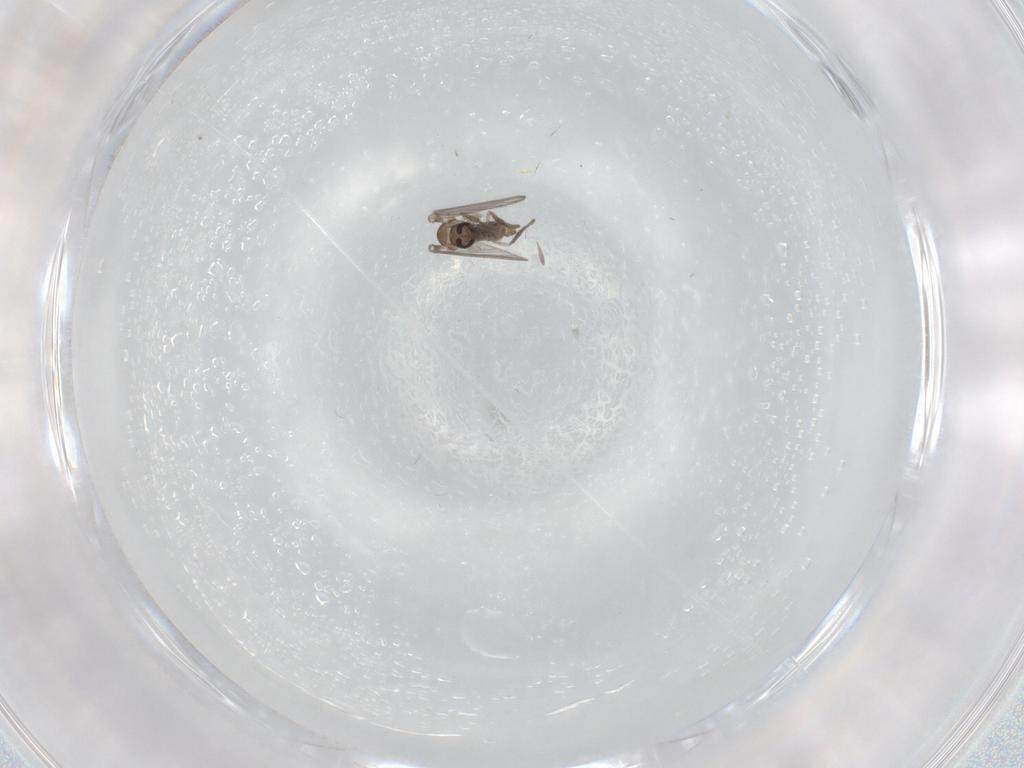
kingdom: Animalia
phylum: Arthropoda
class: Insecta
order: Diptera
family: Psychodidae
